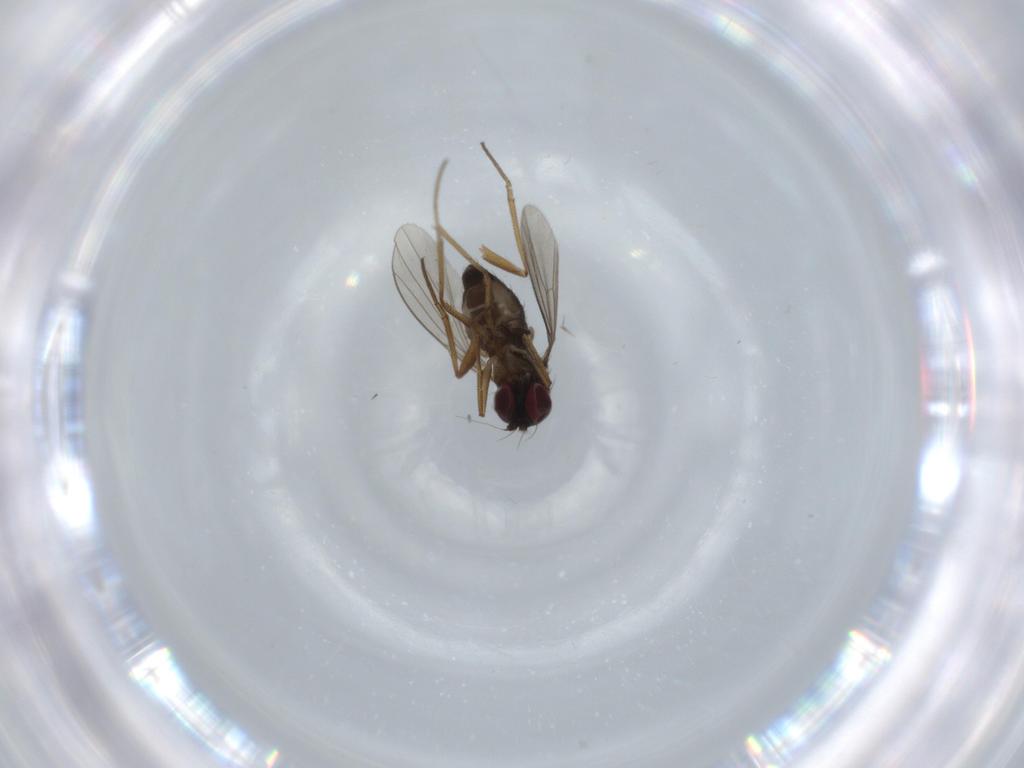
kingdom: Animalia
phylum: Arthropoda
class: Insecta
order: Diptera
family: Dolichopodidae
